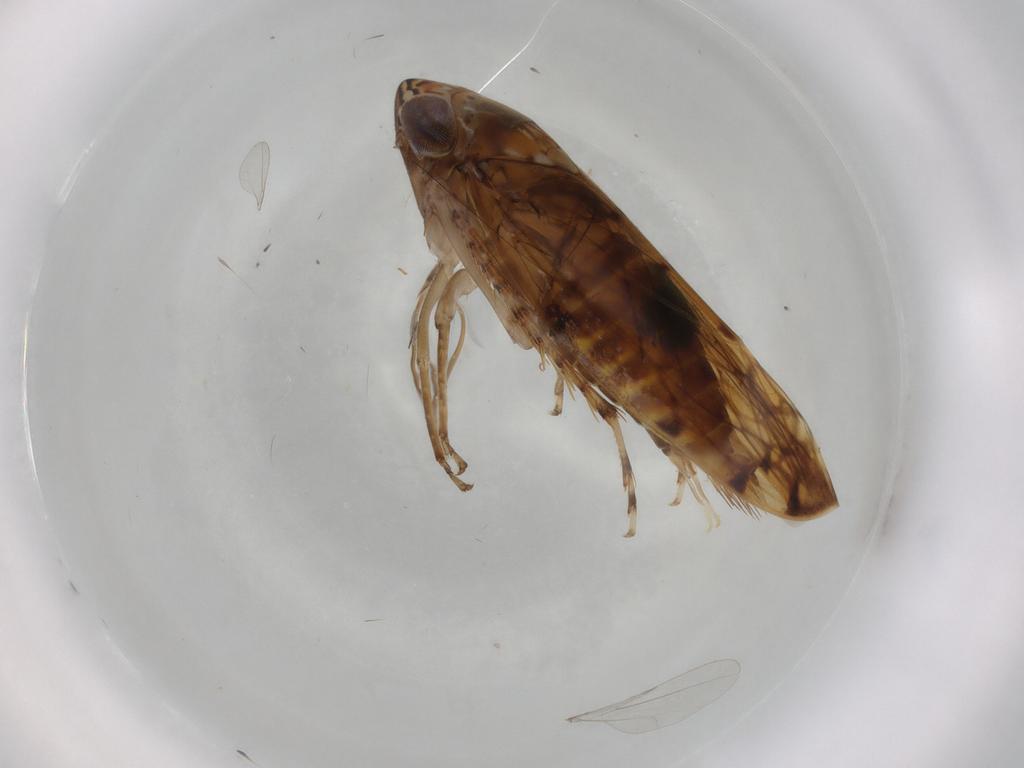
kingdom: Animalia
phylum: Arthropoda
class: Insecta
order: Hemiptera
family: Cicadellidae
